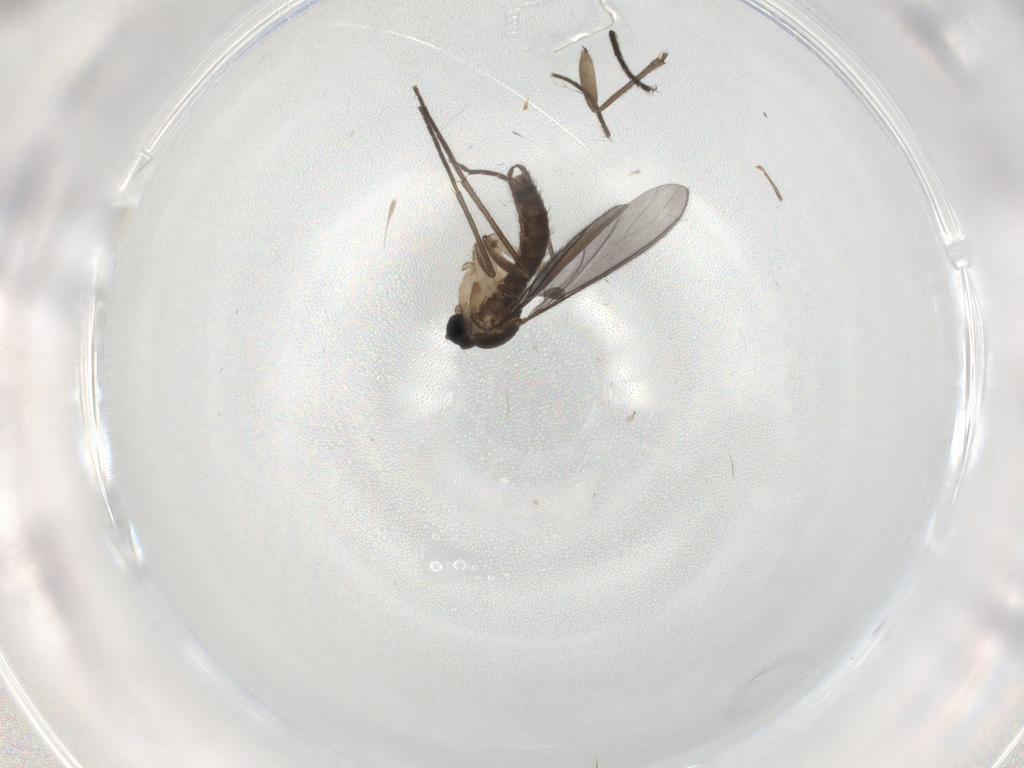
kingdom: Animalia
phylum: Arthropoda
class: Insecta
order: Diptera
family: Sciaridae
